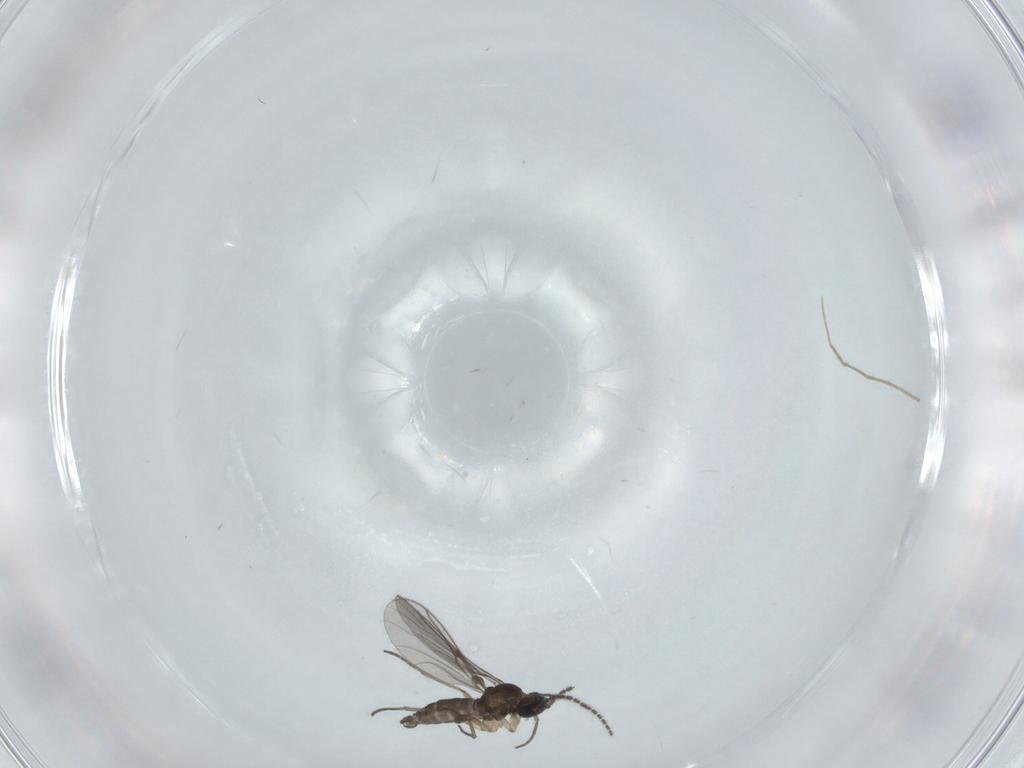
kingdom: Animalia
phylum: Arthropoda
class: Insecta
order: Diptera
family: Sciaridae
